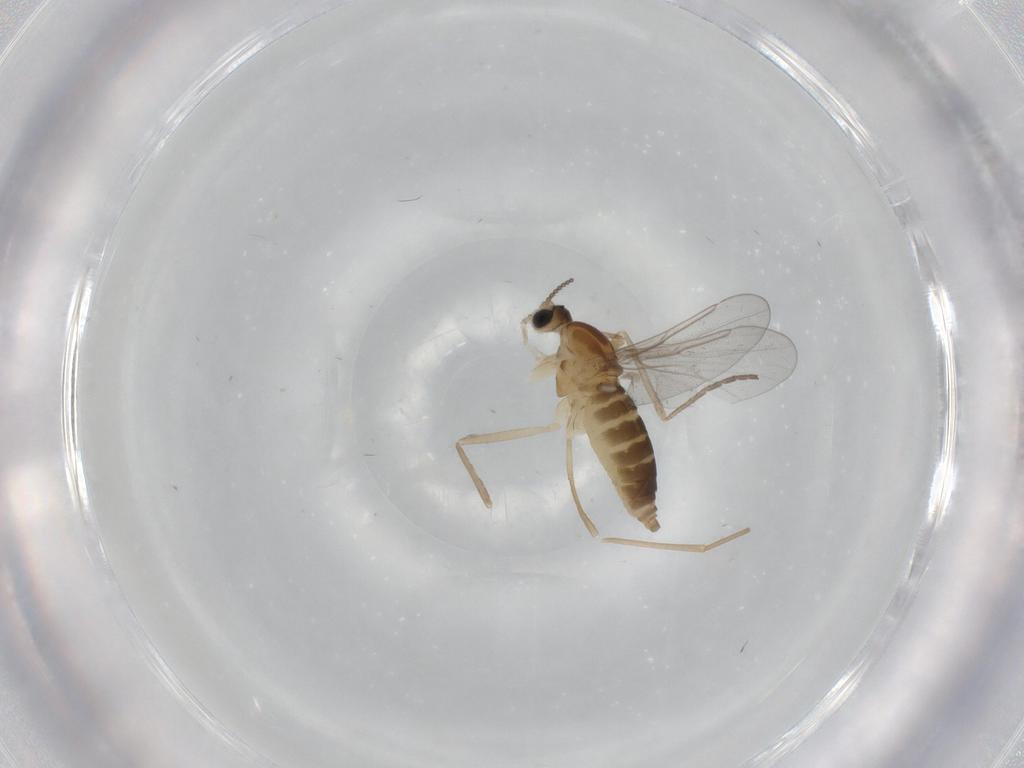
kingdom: Animalia
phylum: Arthropoda
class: Insecta
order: Diptera
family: Cecidomyiidae
